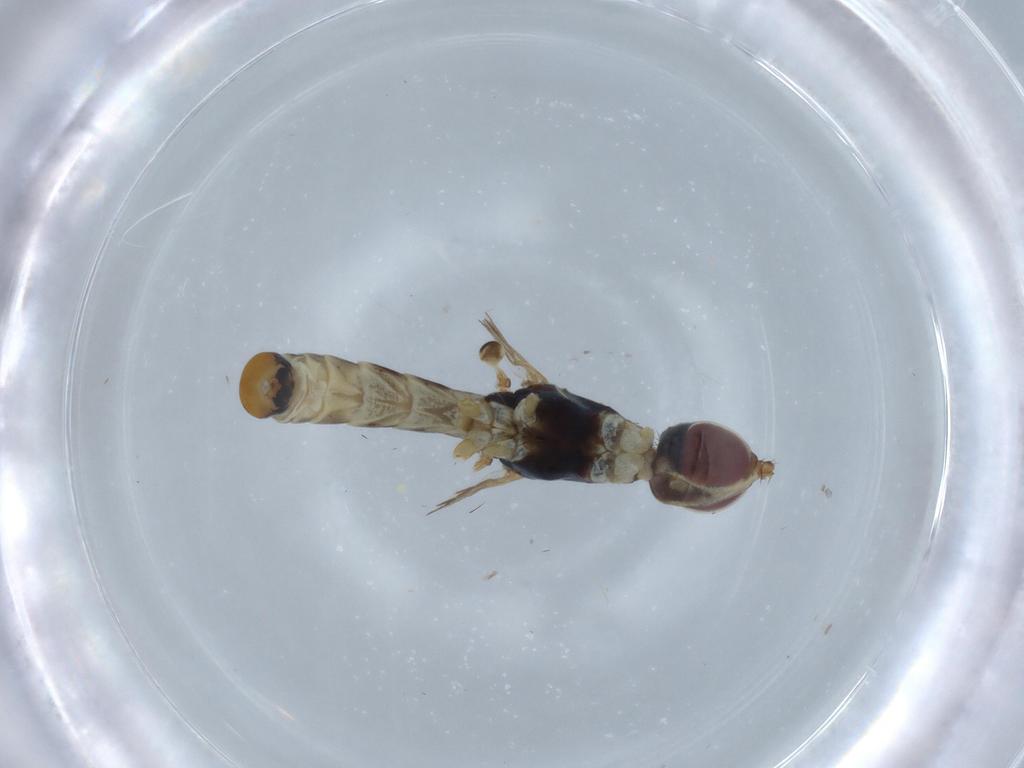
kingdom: Animalia
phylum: Arthropoda
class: Insecta
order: Diptera
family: Micropezidae
